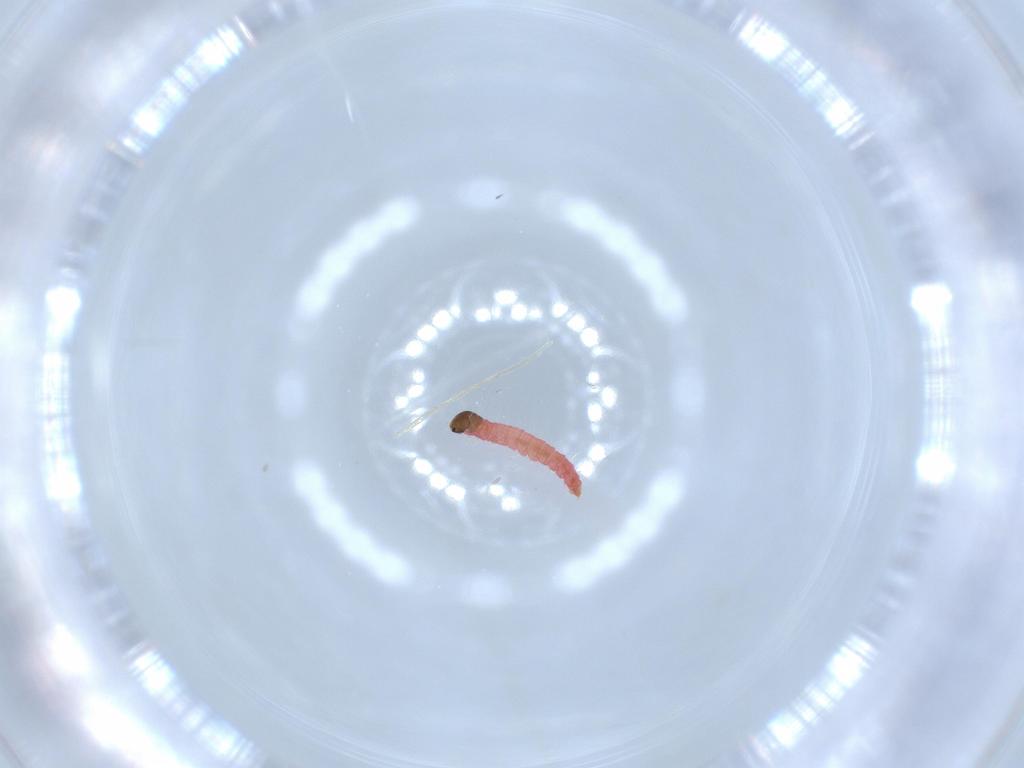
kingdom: Animalia
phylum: Arthropoda
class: Insecta
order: Lepidoptera
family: Autostichidae
